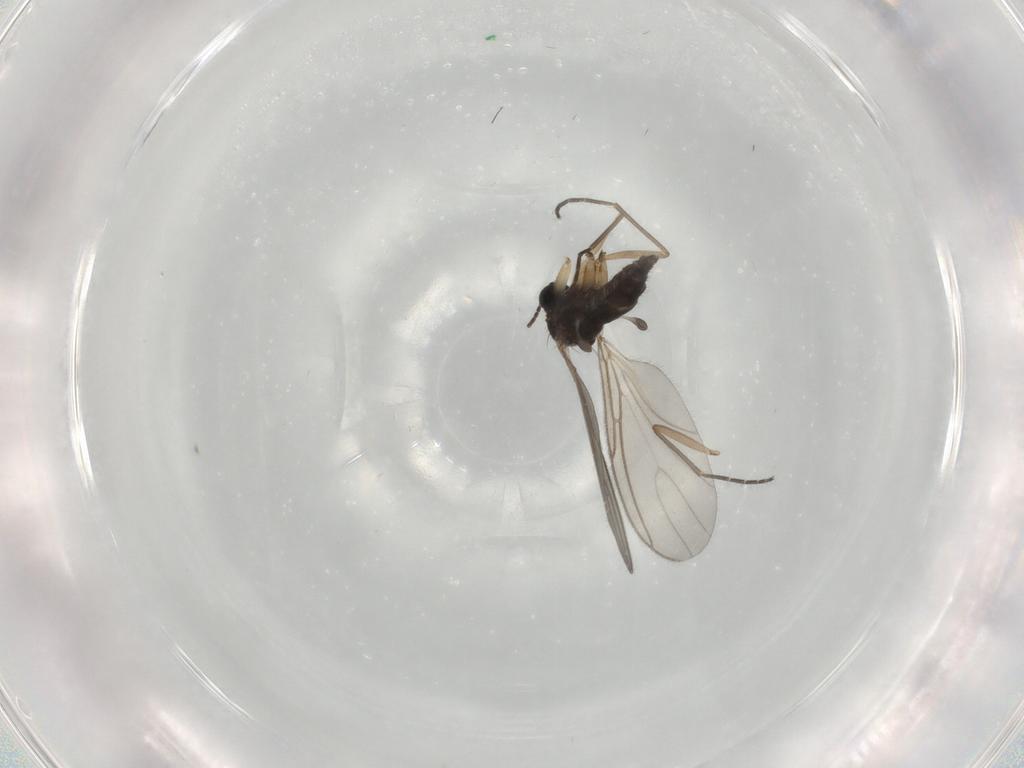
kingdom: Animalia
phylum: Arthropoda
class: Insecta
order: Diptera
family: Sciaridae
